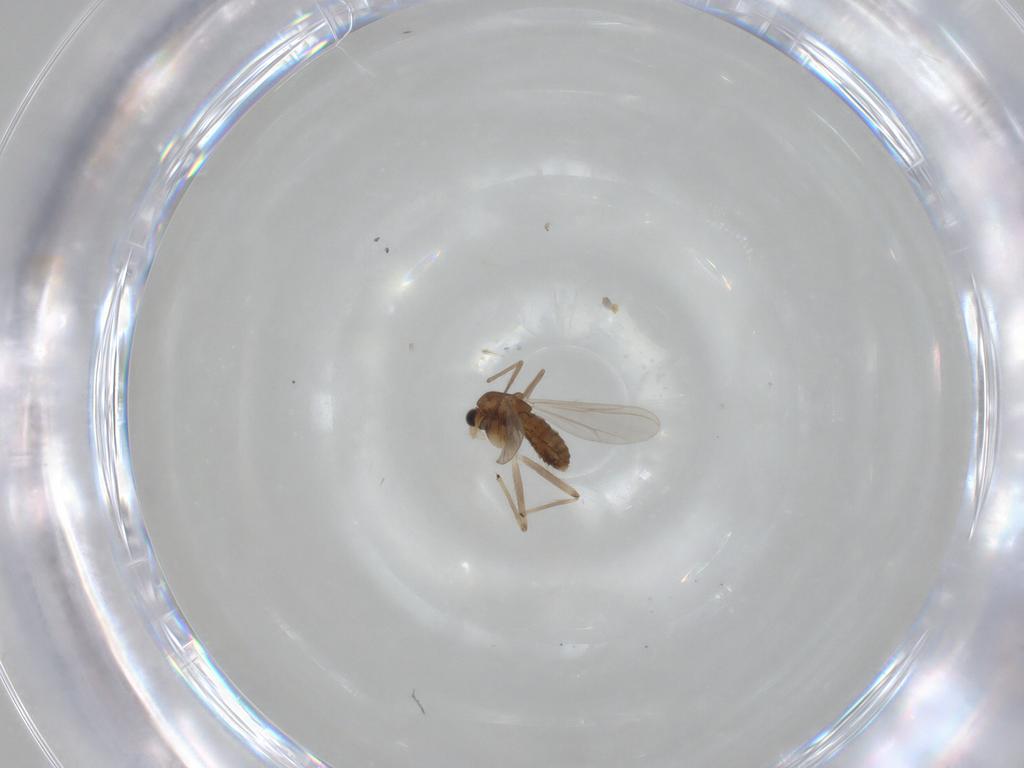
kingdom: Animalia
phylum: Arthropoda
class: Insecta
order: Diptera
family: Chironomidae
